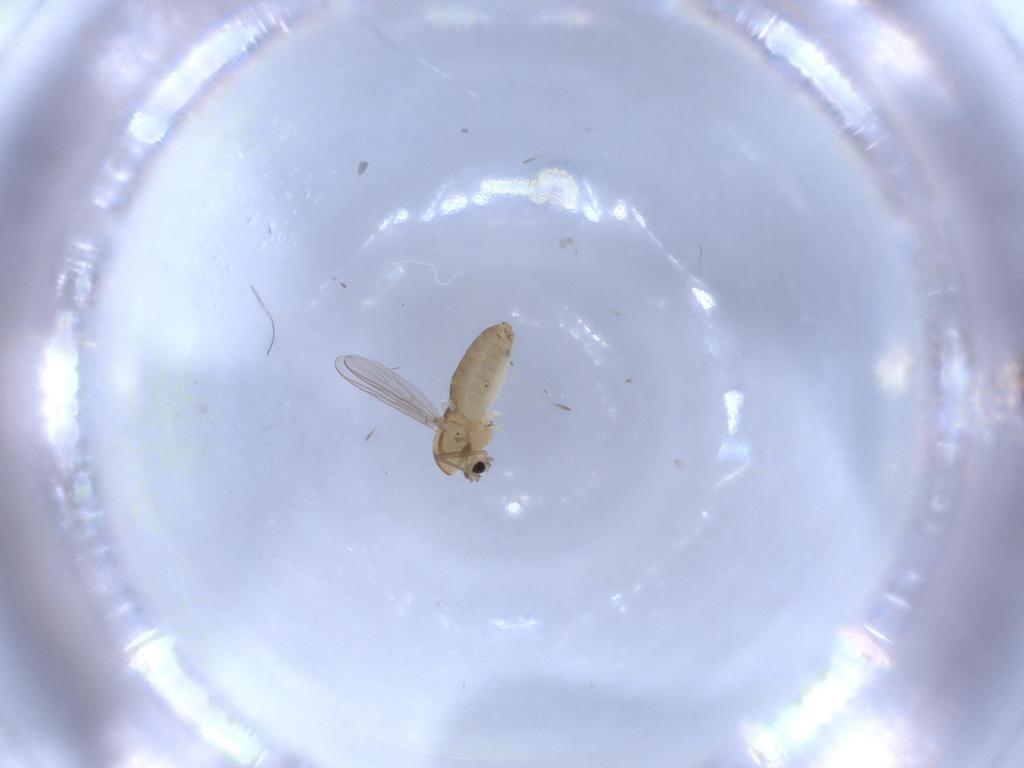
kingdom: Animalia
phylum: Arthropoda
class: Insecta
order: Diptera
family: Chironomidae
